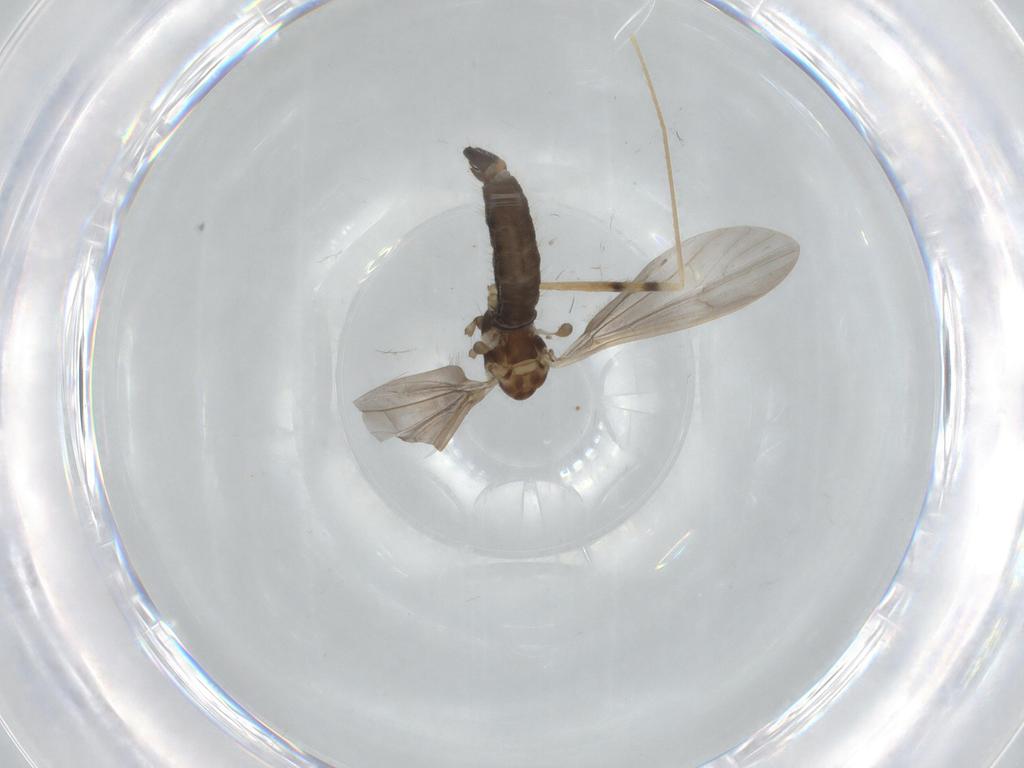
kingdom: Animalia
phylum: Arthropoda
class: Insecta
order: Diptera
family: Limoniidae
